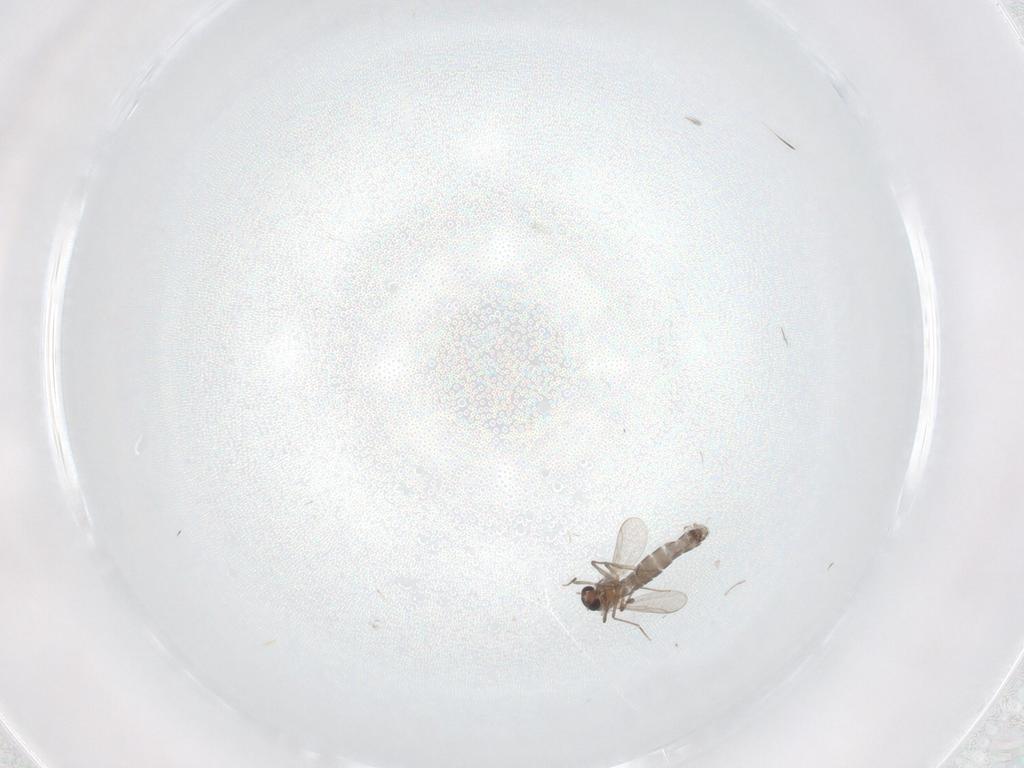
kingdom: Animalia
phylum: Arthropoda
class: Insecta
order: Diptera
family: Cecidomyiidae
